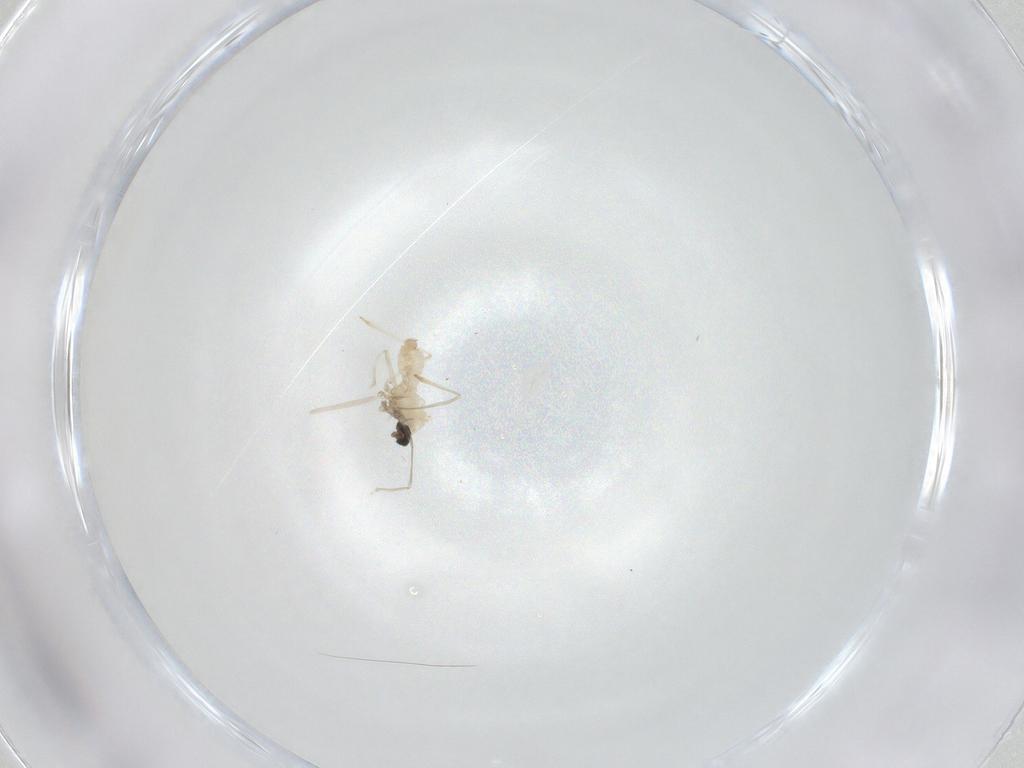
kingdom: Animalia
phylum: Arthropoda
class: Insecta
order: Diptera
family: Cecidomyiidae
